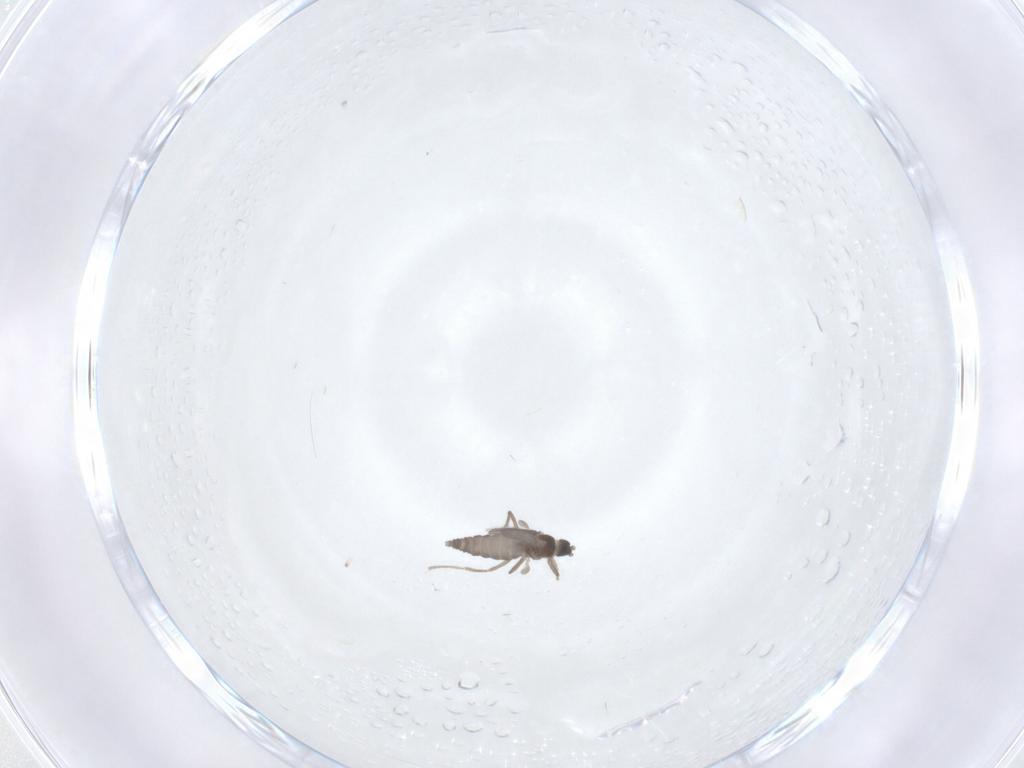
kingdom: Animalia
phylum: Arthropoda
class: Insecta
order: Diptera
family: Cecidomyiidae
